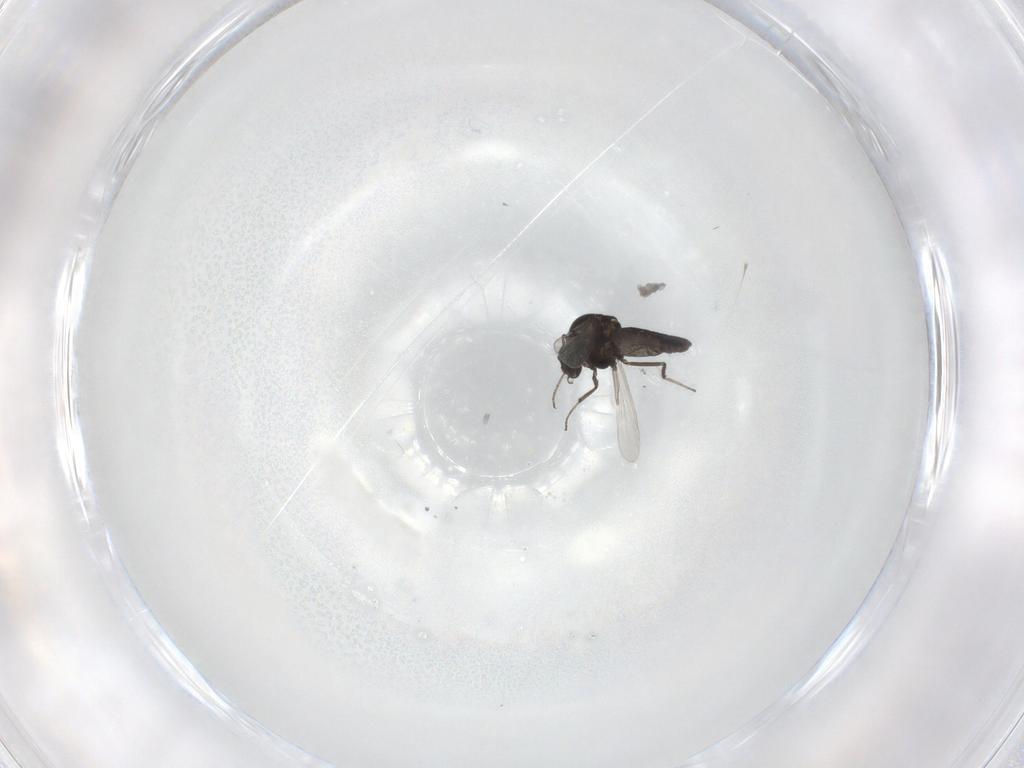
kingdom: Animalia
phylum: Arthropoda
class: Insecta
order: Diptera
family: Ceratopogonidae
